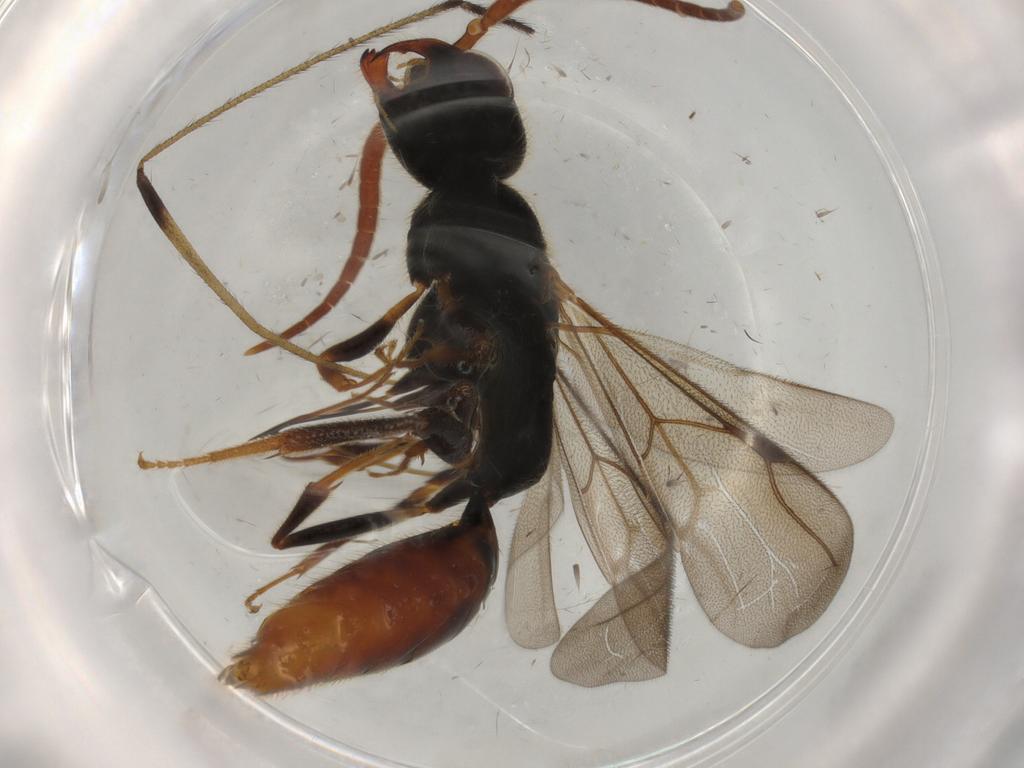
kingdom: Animalia
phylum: Arthropoda
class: Insecta
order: Hymenoptera
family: Bethylidae
